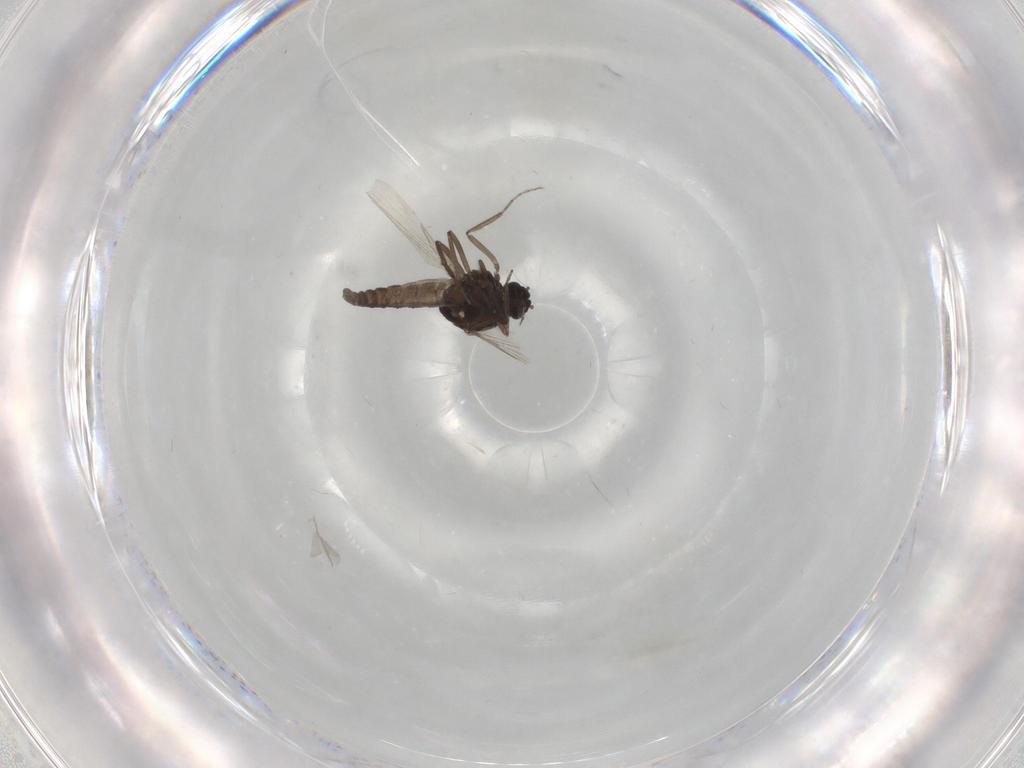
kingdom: Animalia
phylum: Arthropoda
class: Insecta
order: Diptera
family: Ceratopogonidae
